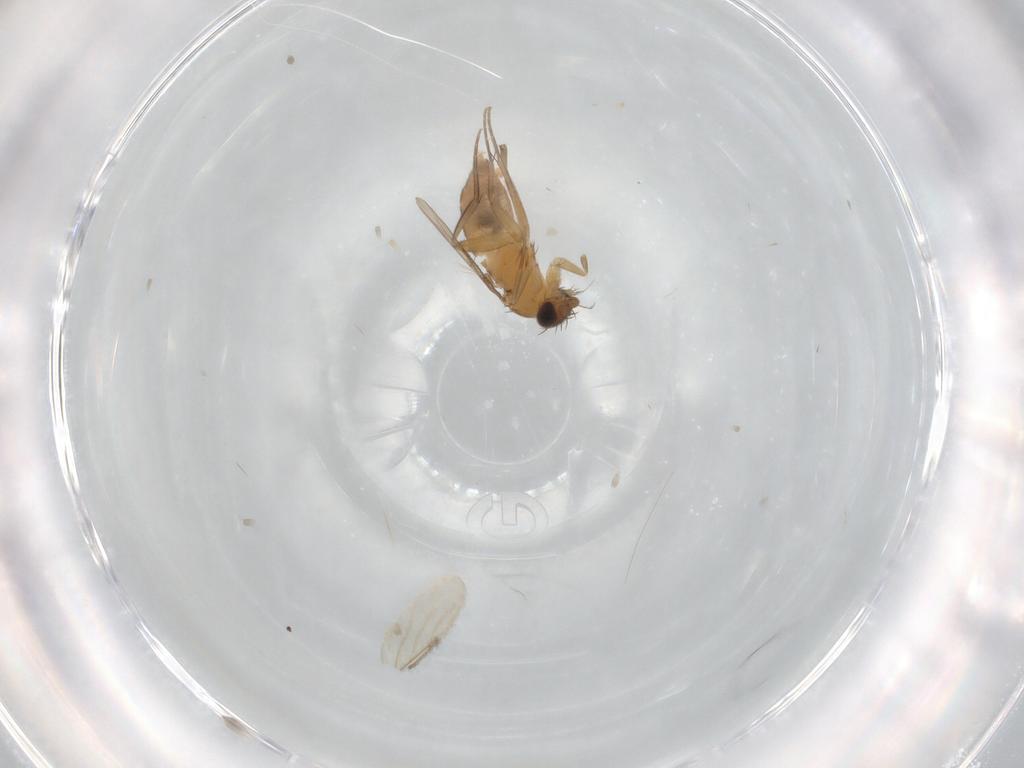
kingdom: Animalia
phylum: Arthropoda
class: Insecta
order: Diptera
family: Phoridae
